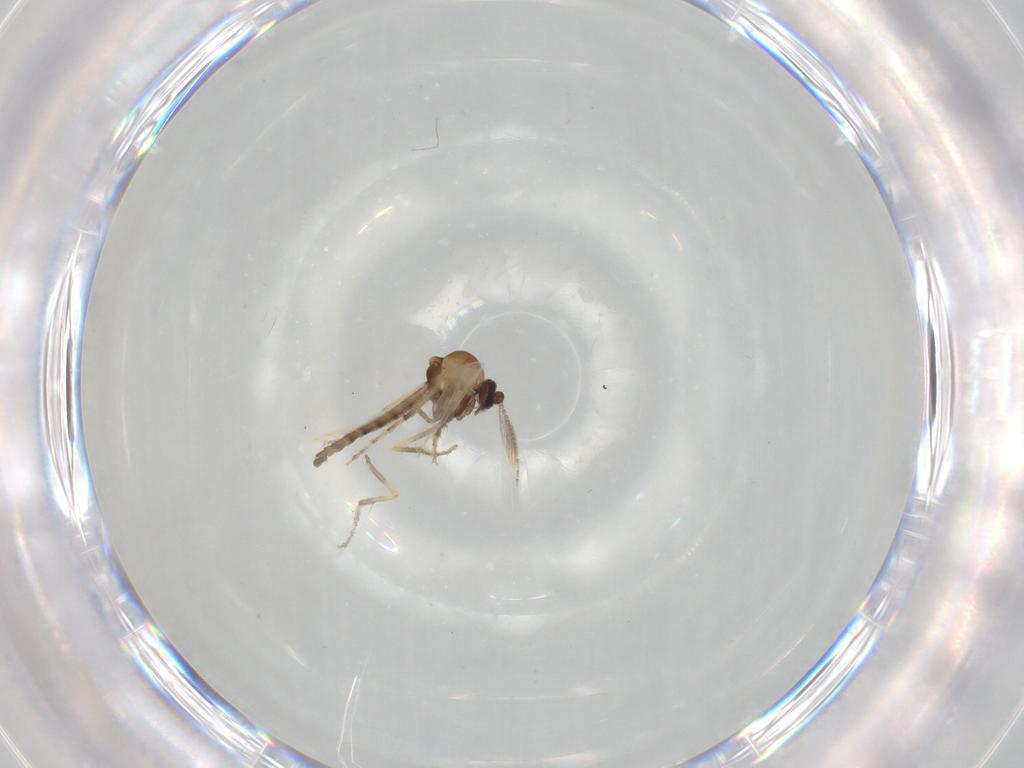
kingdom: Animalia
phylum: Arthropoda
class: Insecta
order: Diptera
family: Ceratopogonidae
